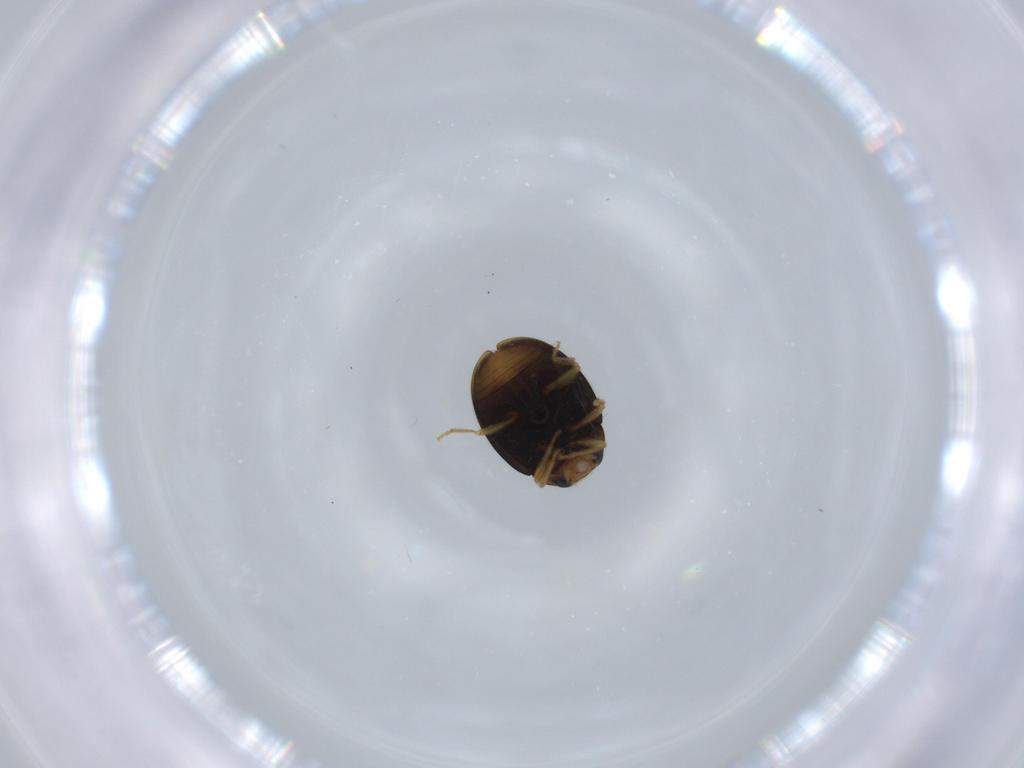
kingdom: Animalia
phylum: Arthropoda
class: Insecta
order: Coleoptera
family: Coccinellidae
